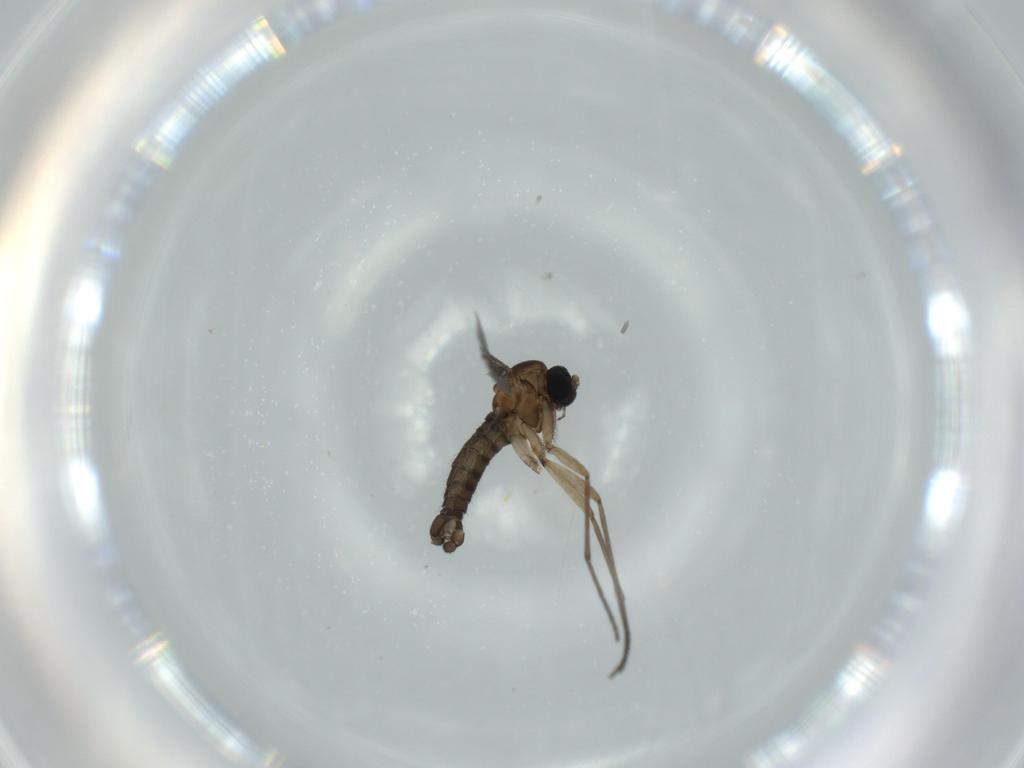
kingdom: Animalia
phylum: Arthropoda
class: Insecta
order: Diptera
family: Sciaridae
